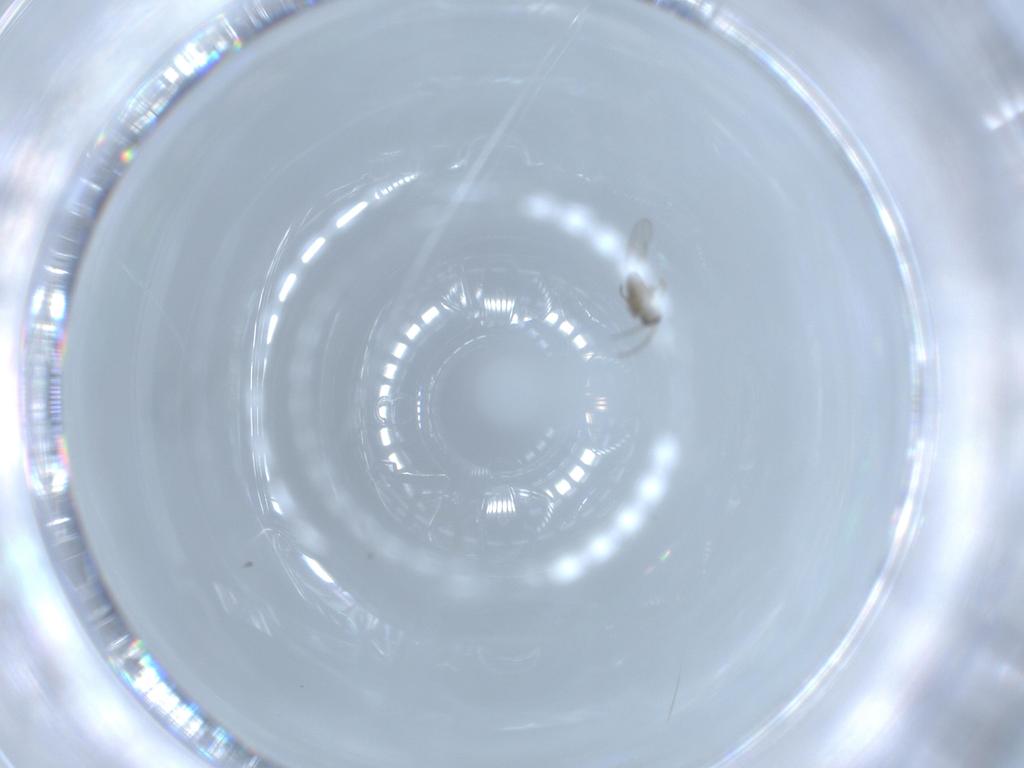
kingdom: Animalia
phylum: Arthropoda
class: Insecta
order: Diptera
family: Cecidomyiidae
